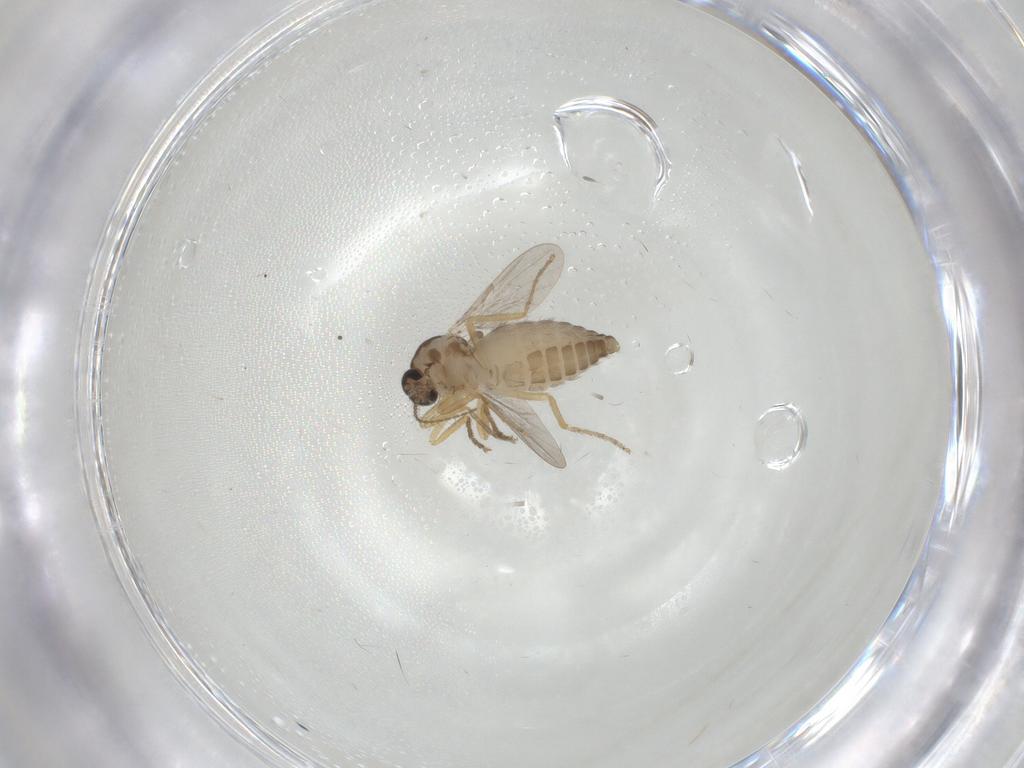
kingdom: Animalia
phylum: Arthropoda
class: Insecta
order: Diptera
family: Ceratopogonidae
